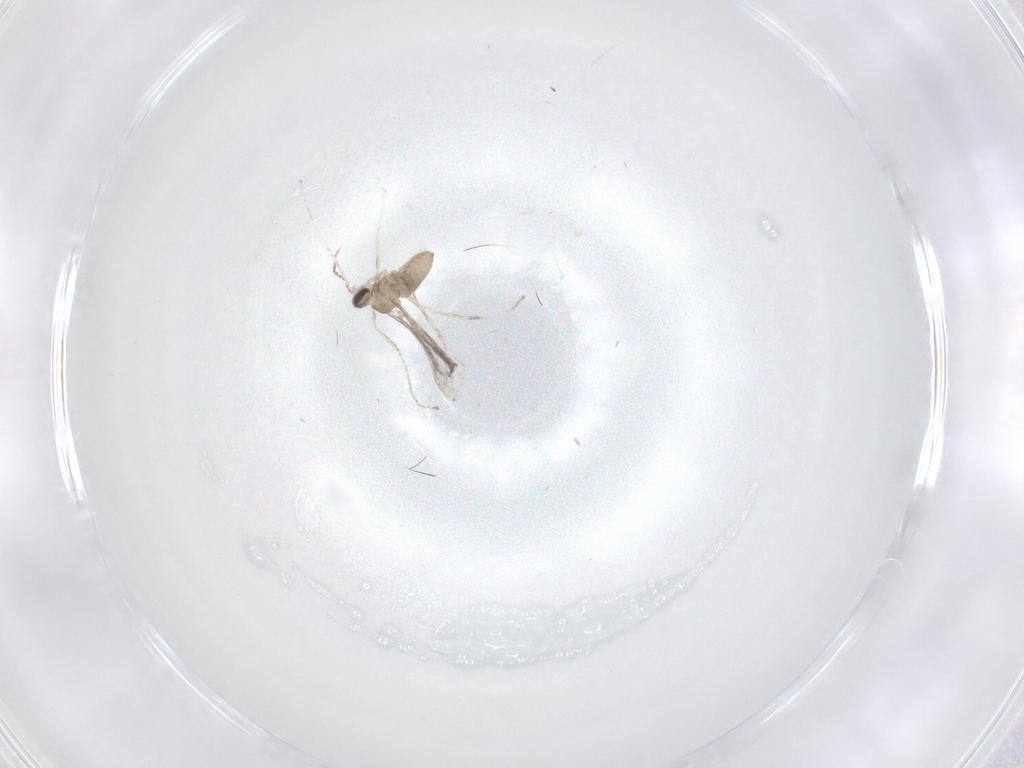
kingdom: Animalia
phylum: Arthropoda
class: Insecta
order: Diptera
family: Cecidomyiidae
